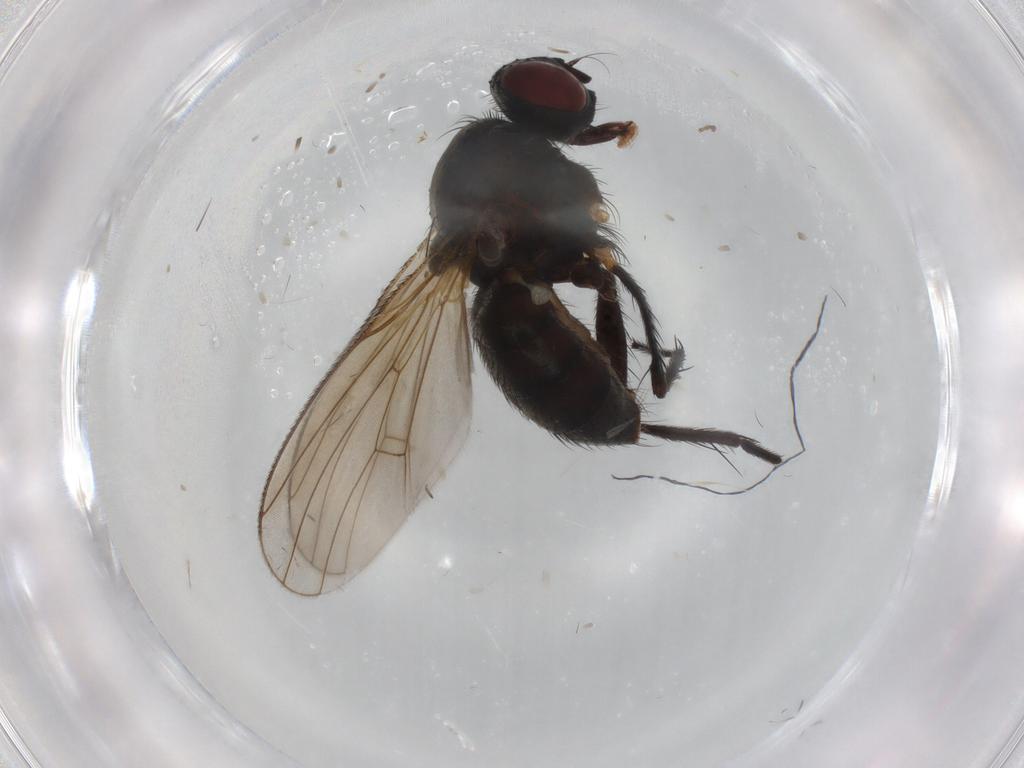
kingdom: Animalia
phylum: Arthropoda
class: Insecta
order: Diptera
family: Muscidae
